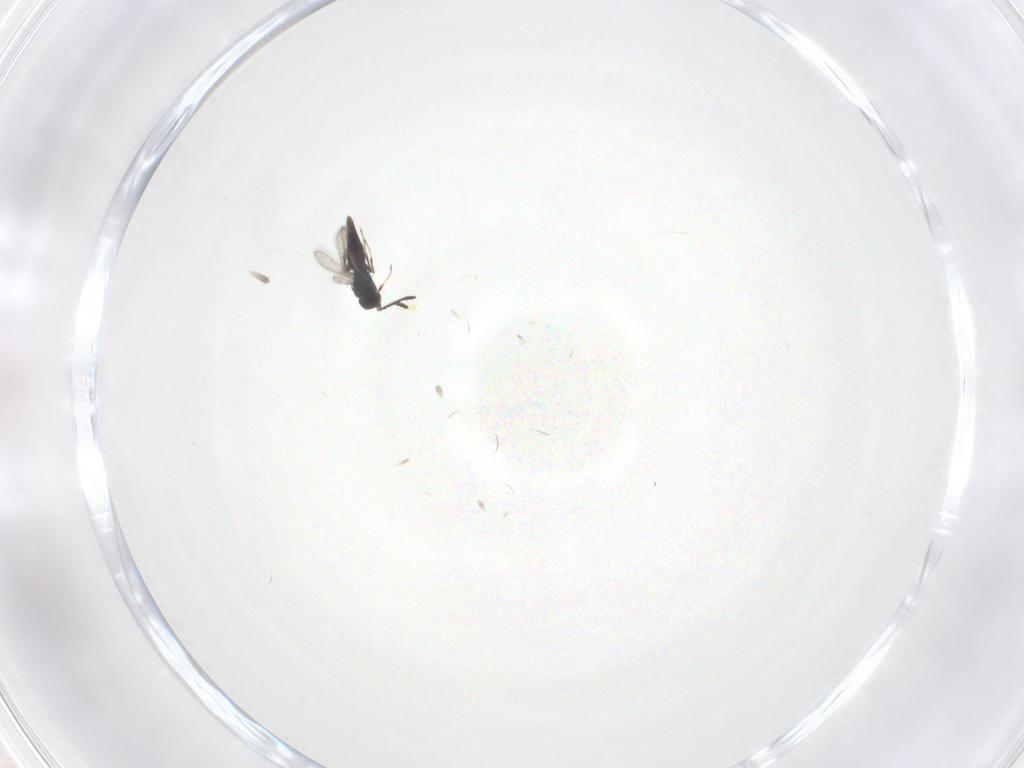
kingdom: Animalia
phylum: Arthropoda
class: Insecta
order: Hymenoptera
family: Scelionidae
